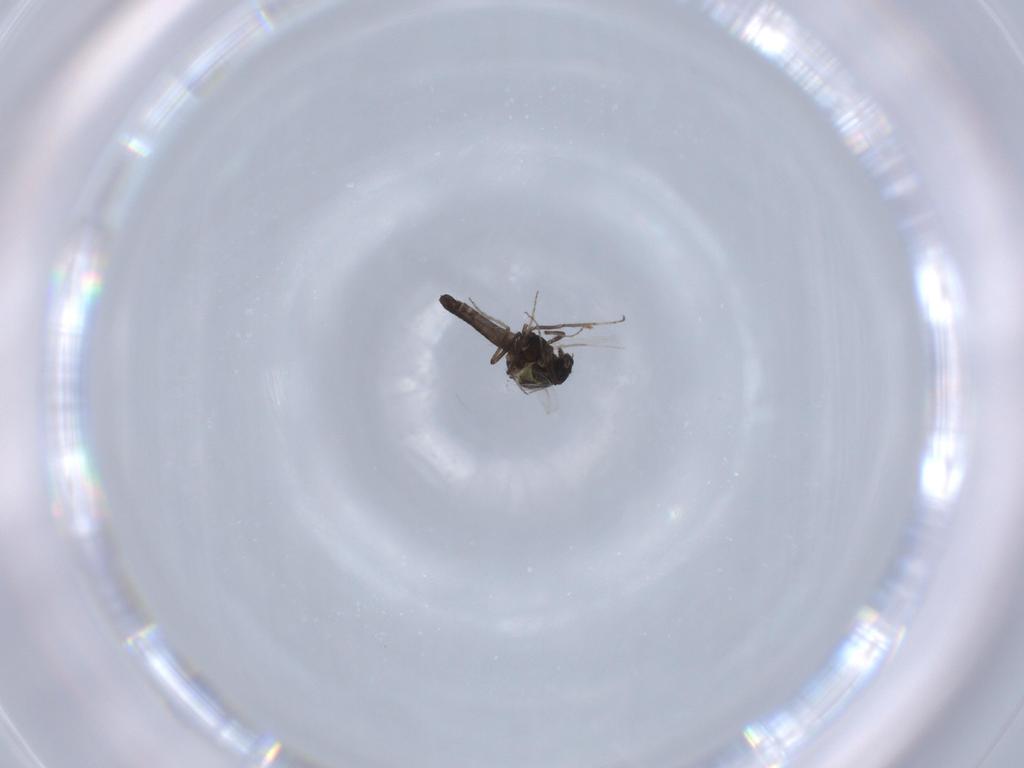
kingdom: Animalia
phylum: Arthropoda
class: Insecta
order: Diptera
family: Ceratopogonidae
